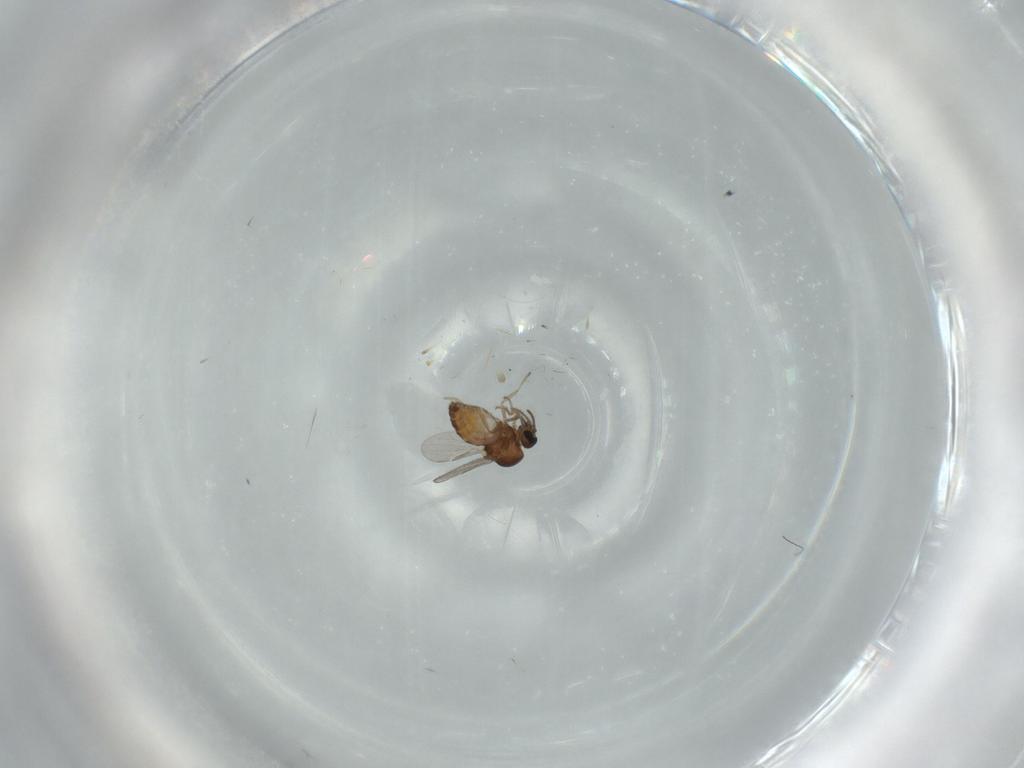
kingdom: Animalia
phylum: Arthropoda
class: Insecta
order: Diptera
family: Ceratopogonidae
